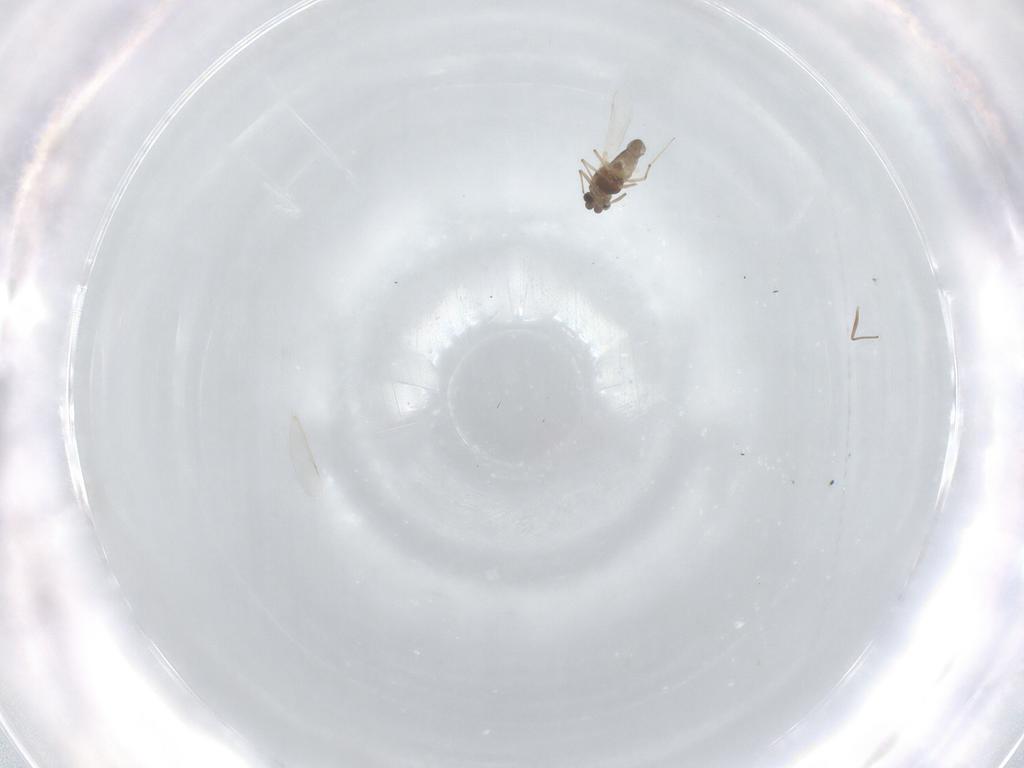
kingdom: Animalia
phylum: Arthropoda
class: Insecta
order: Diptera
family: Chironomidae
